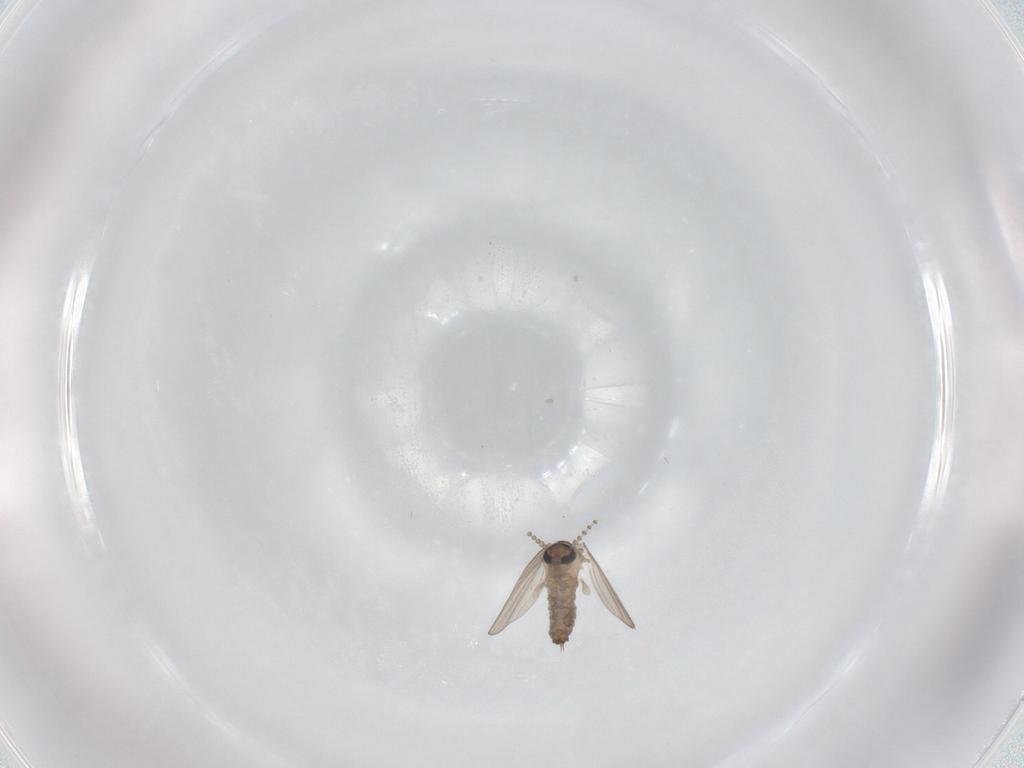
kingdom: Animalia
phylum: Arthropoda
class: Insecta
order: Diptera
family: Psychodidae
